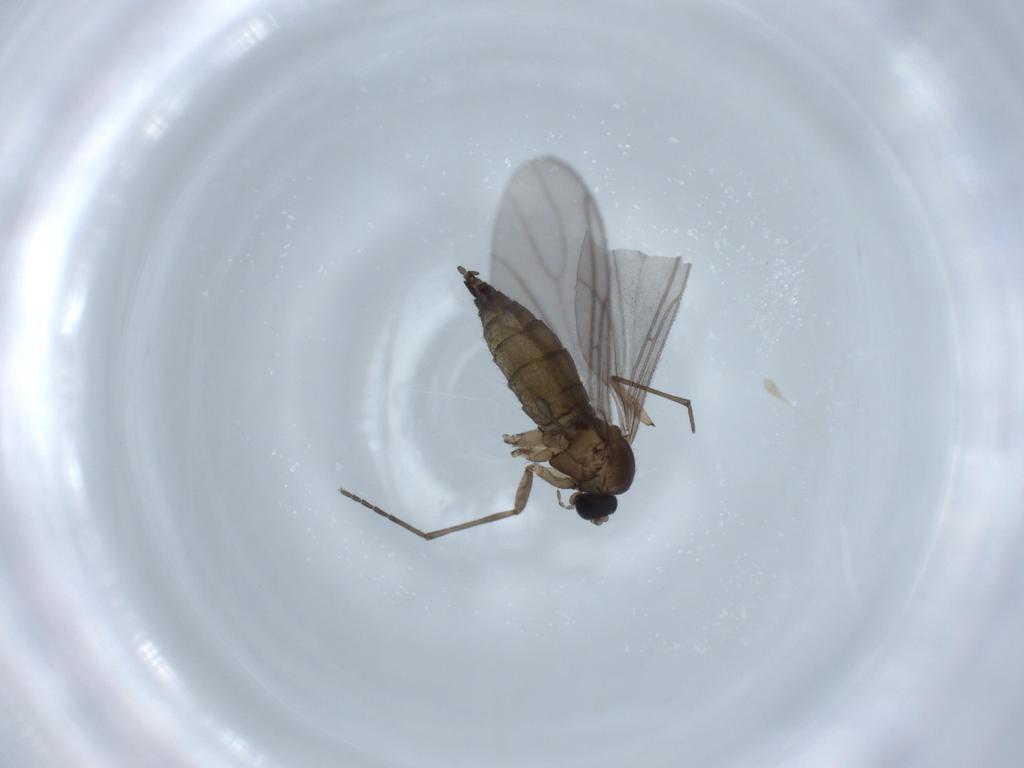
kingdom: Animalia
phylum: Arthropoda
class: Insecta
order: Diptera
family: Sciaridae
